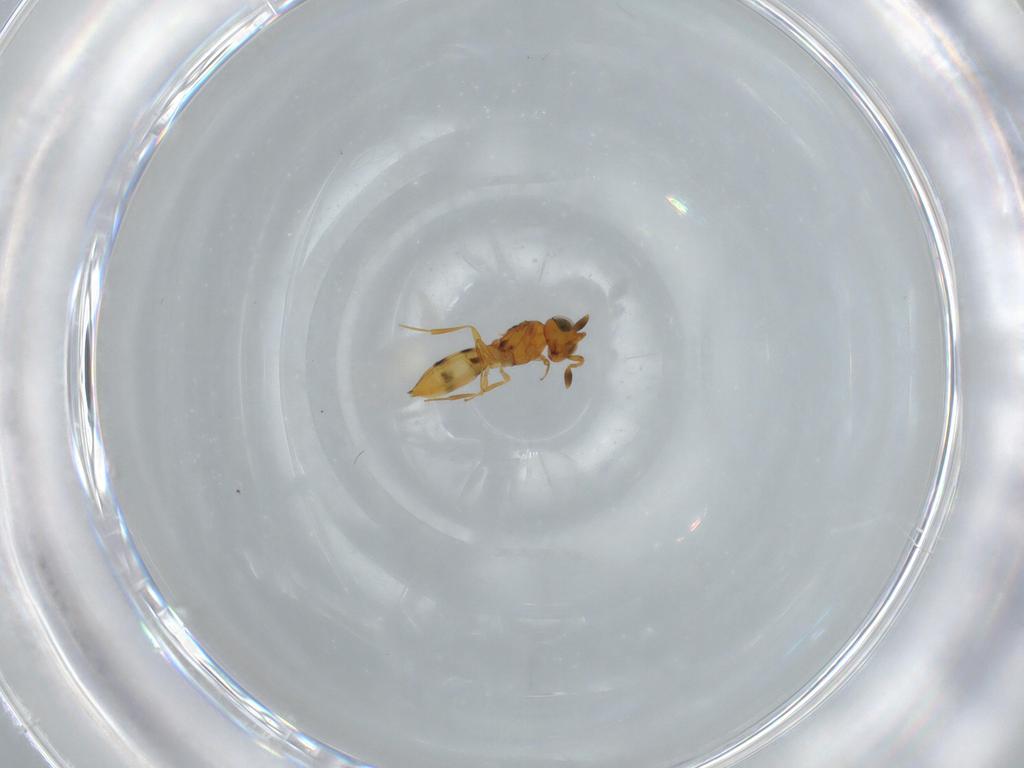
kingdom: Animalia
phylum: Arthropoda
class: Insecta
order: Hymenoptera
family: Scelionidae
